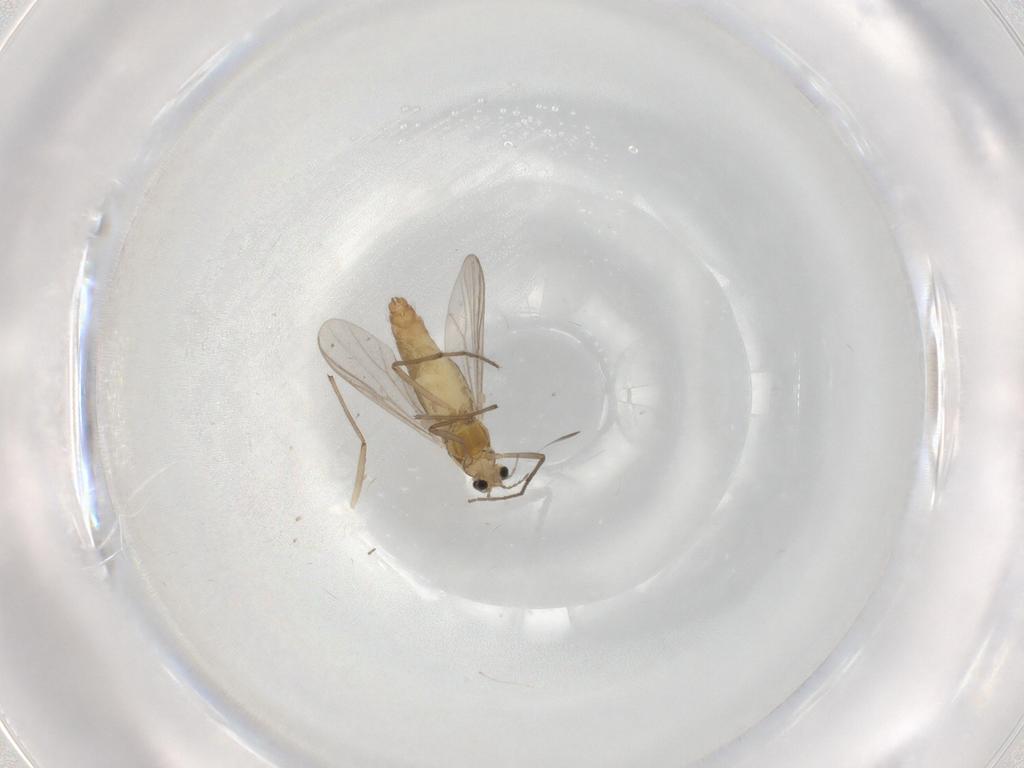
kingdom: Animalia
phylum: Arthropoda
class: Insecta
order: Diptera
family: Chironomidae
